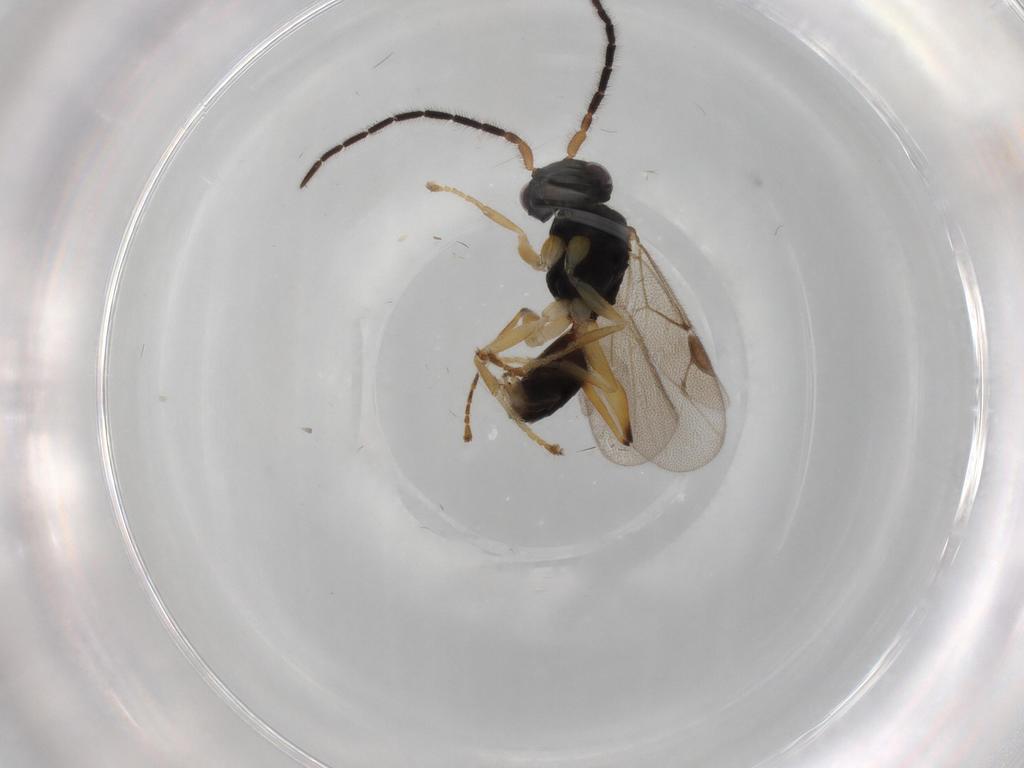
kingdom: Animalia
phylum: Arthropoda
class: Insecta
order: Hymenoptera
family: Dryinidae
